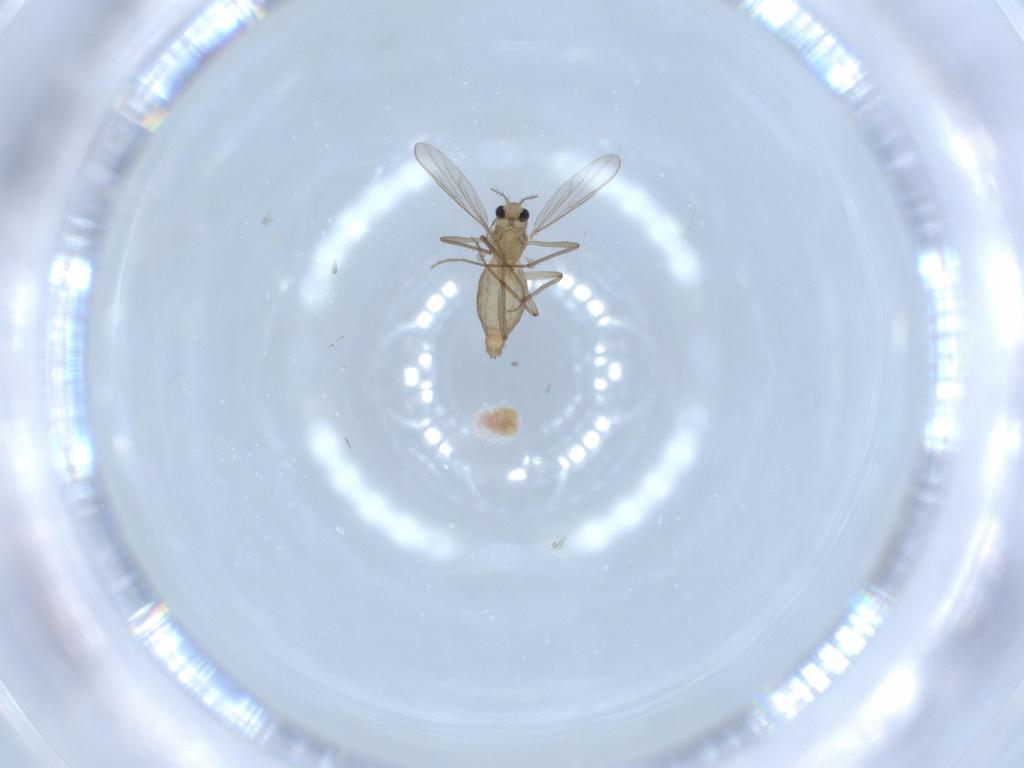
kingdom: Animalia
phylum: Arthropoda
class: Insecta
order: Diptera
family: Chironomidae
